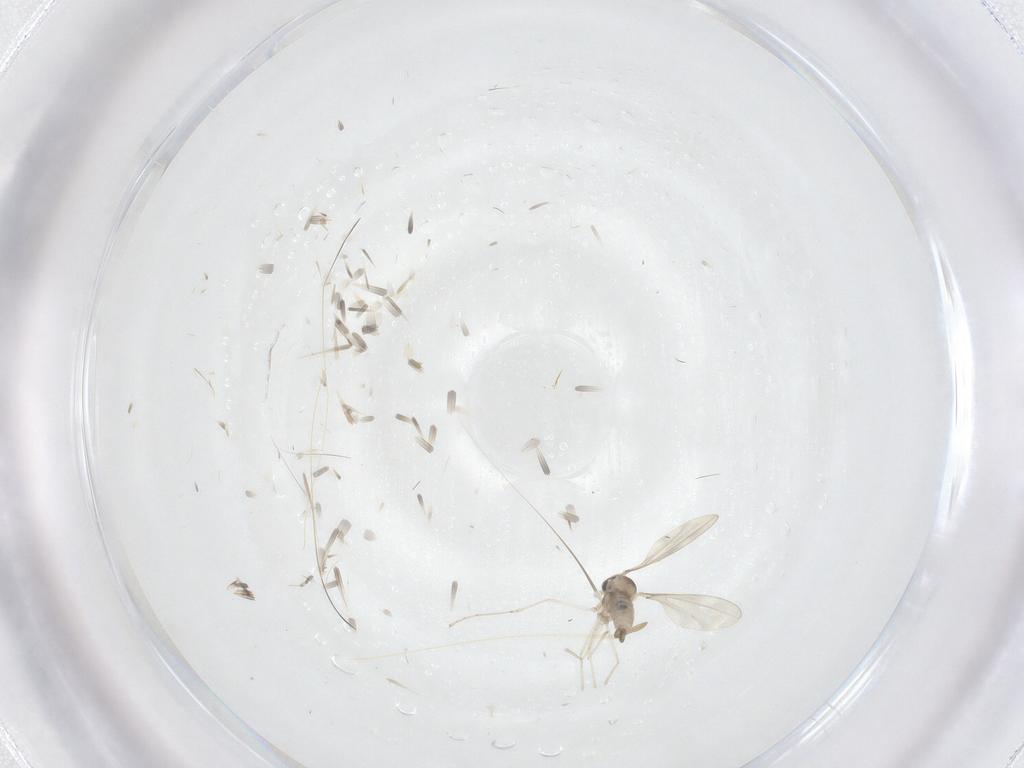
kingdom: Animalia
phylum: Arthropoda
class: Insecta
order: Diptera
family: Cecidomyiidae
